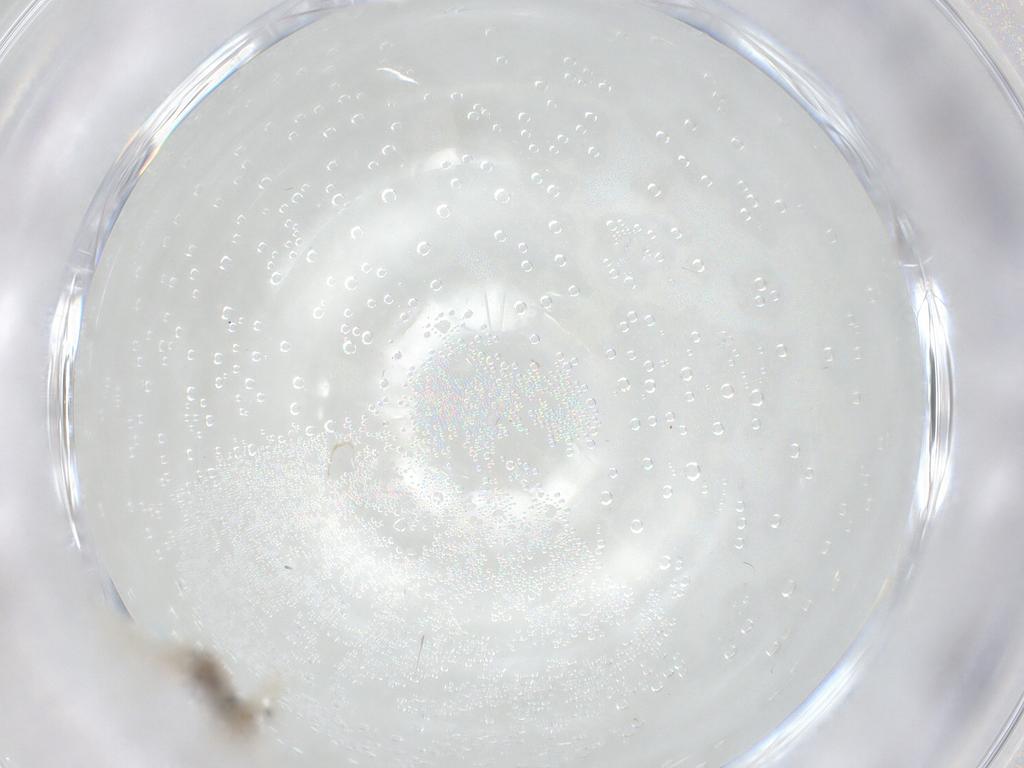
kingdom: Animalia
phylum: Arthropoda
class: Insecta
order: Diptera
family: Cecidomyiidae
